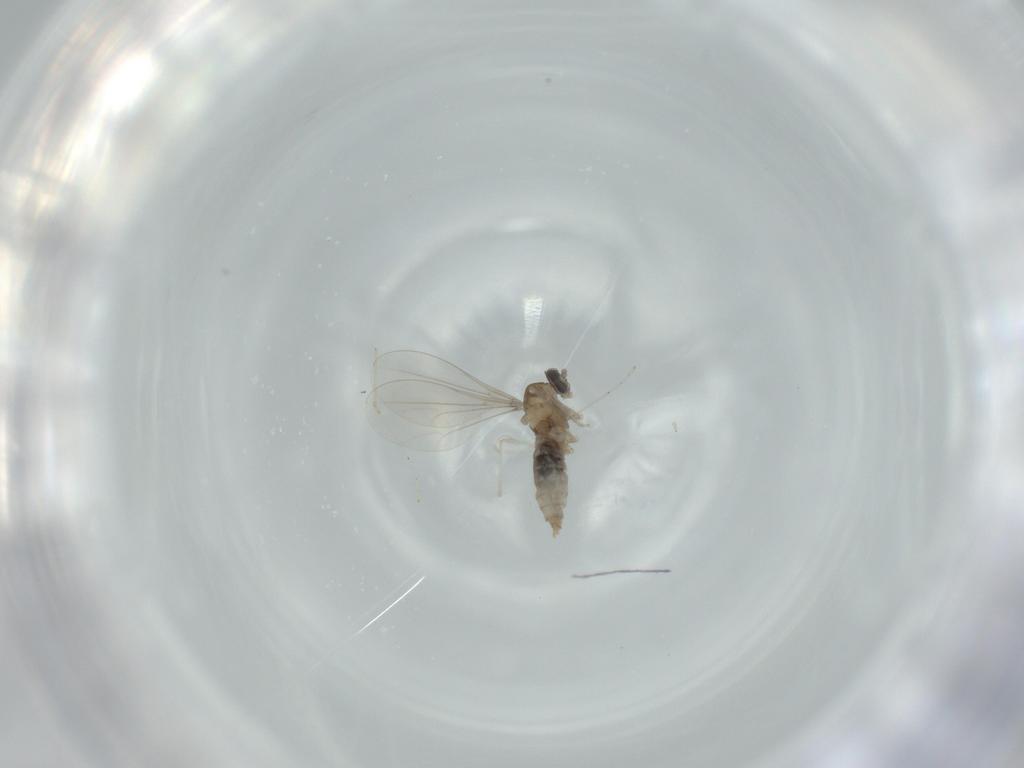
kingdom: Animalia
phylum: Arthropoda
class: Insecta
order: Diptera
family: Cecidomyiidae
